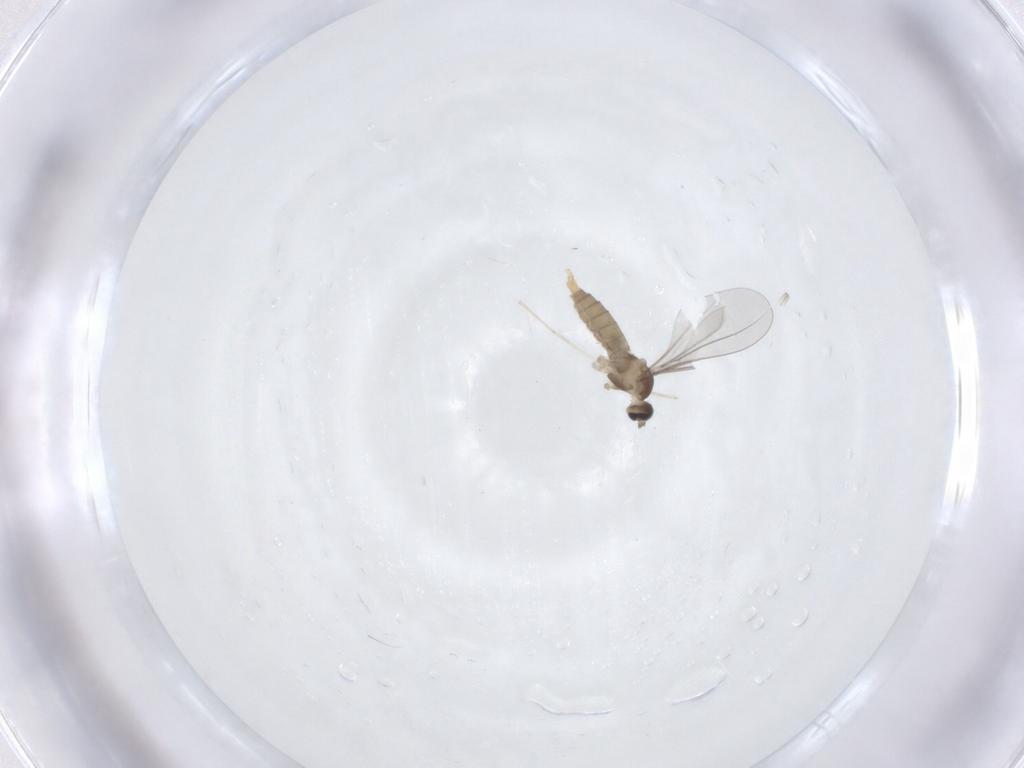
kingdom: Animalia
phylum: Arthropoda
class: Insecta
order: Diptera
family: Cecidomyiidae
